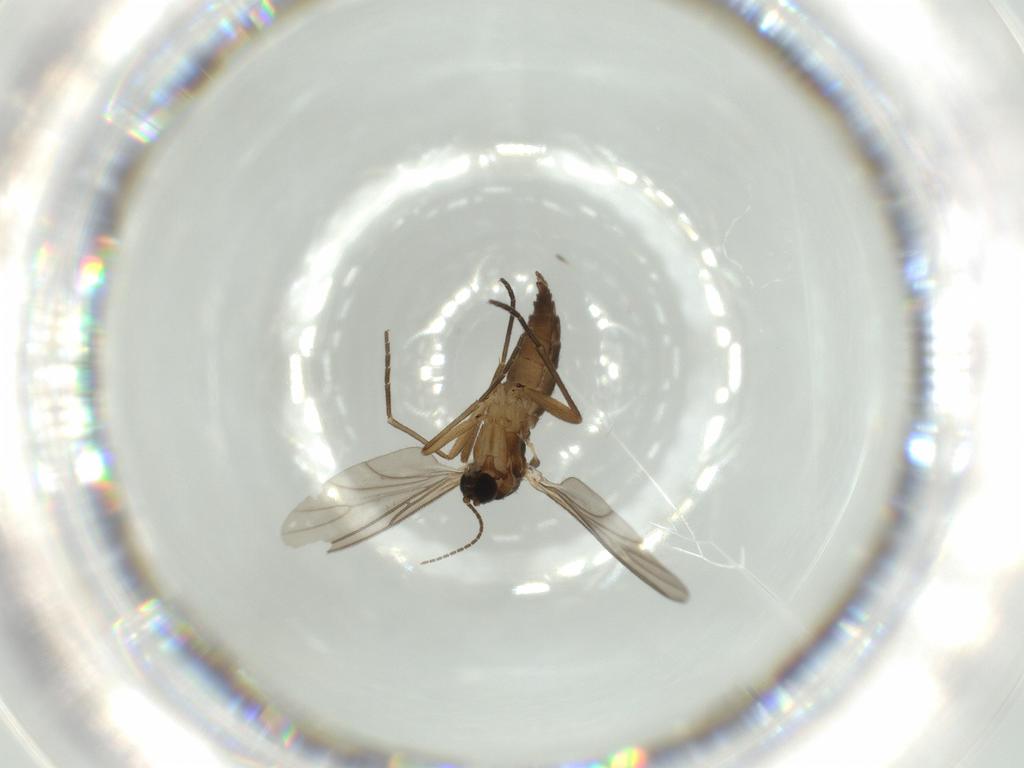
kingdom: Animalia
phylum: Arthropoda
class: Insecta
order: Diptera
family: Sciaridae
